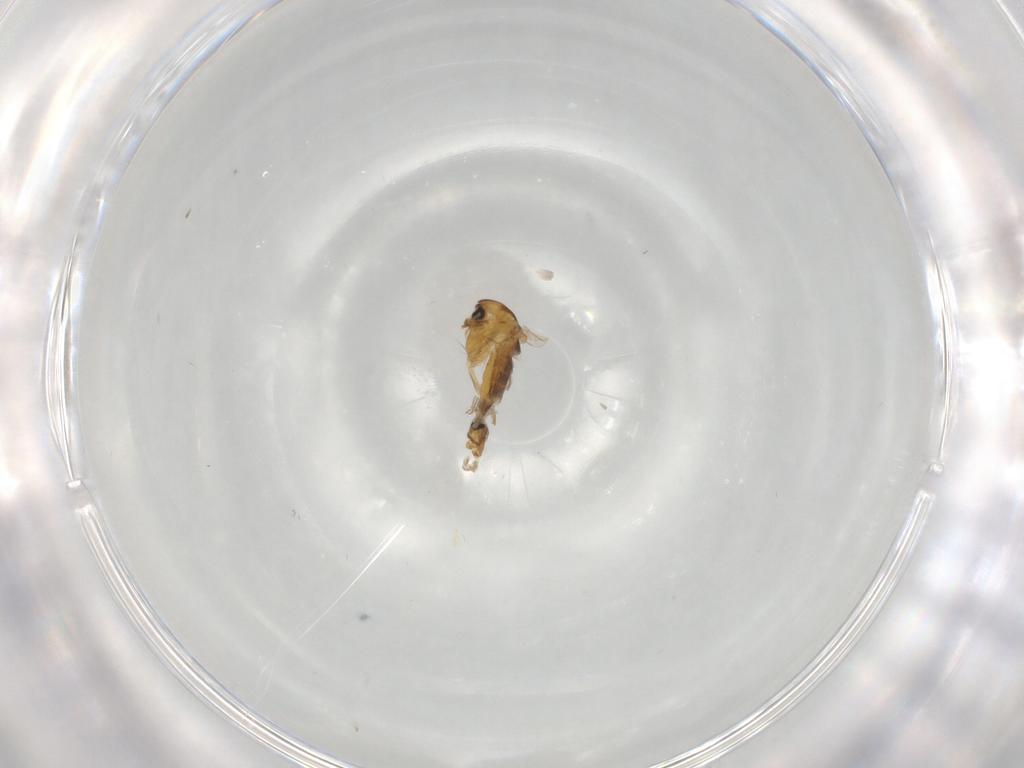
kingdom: Animalia
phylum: Arthropoda
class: Insecta
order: Diptera
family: Chironomidae
